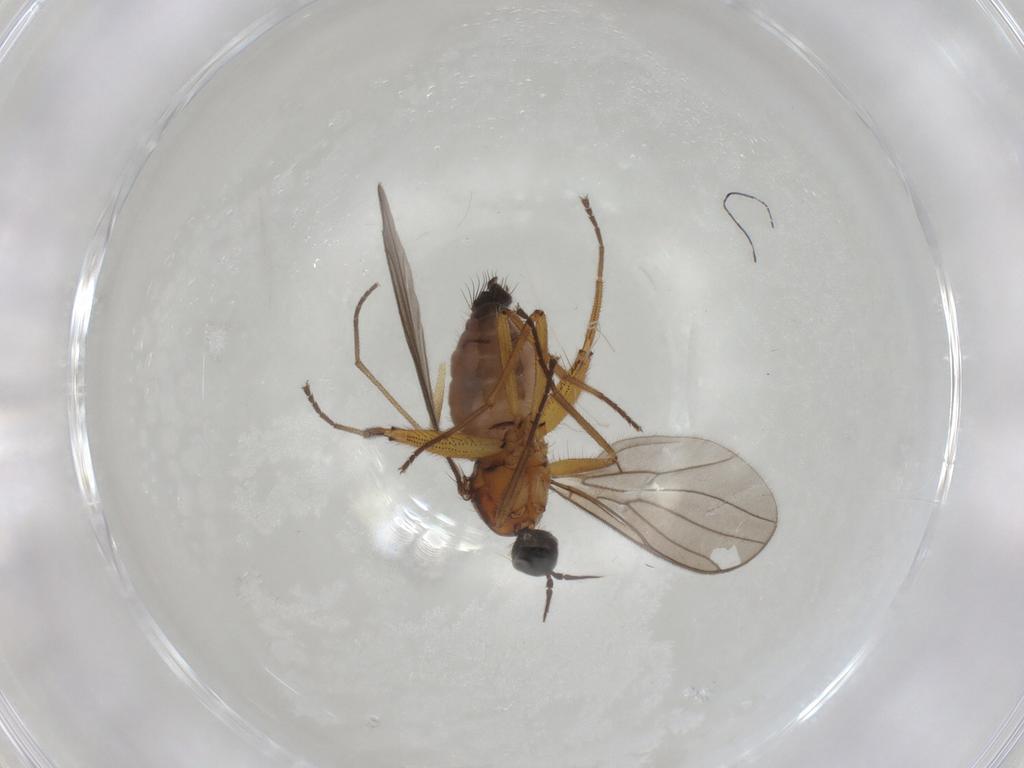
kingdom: Animalia
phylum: Arthropoda
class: Insecta
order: Diptera
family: Hybotidae
